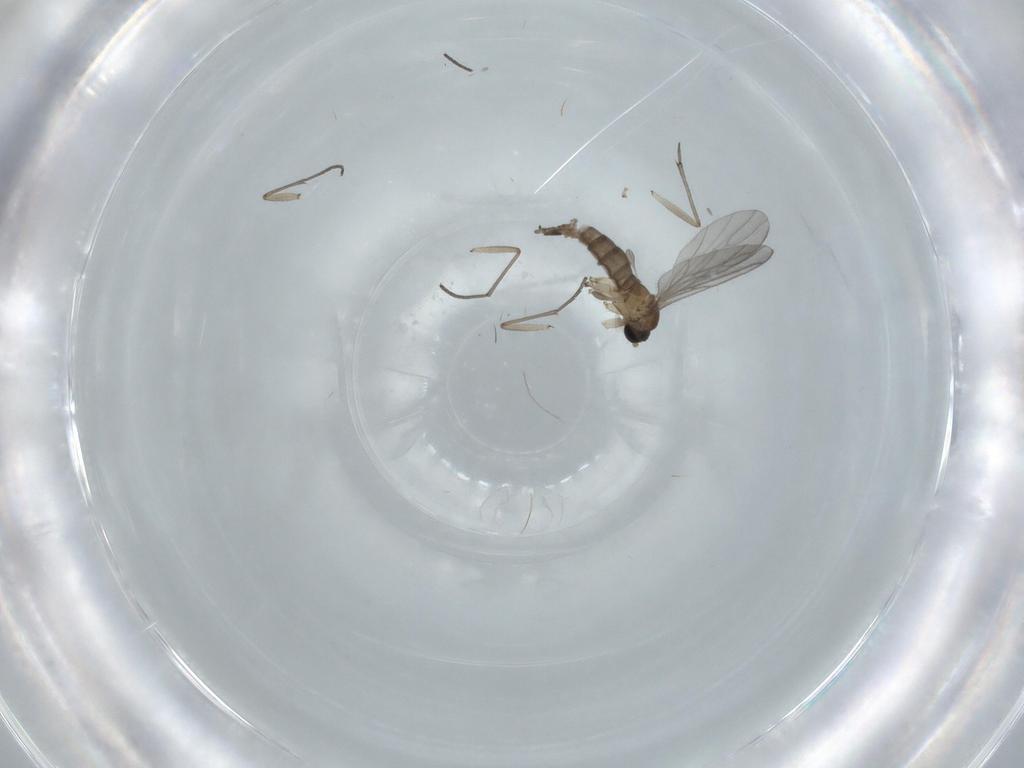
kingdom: Animalia
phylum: Arthropoda
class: Insecta
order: Diptera
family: Sciaridae
